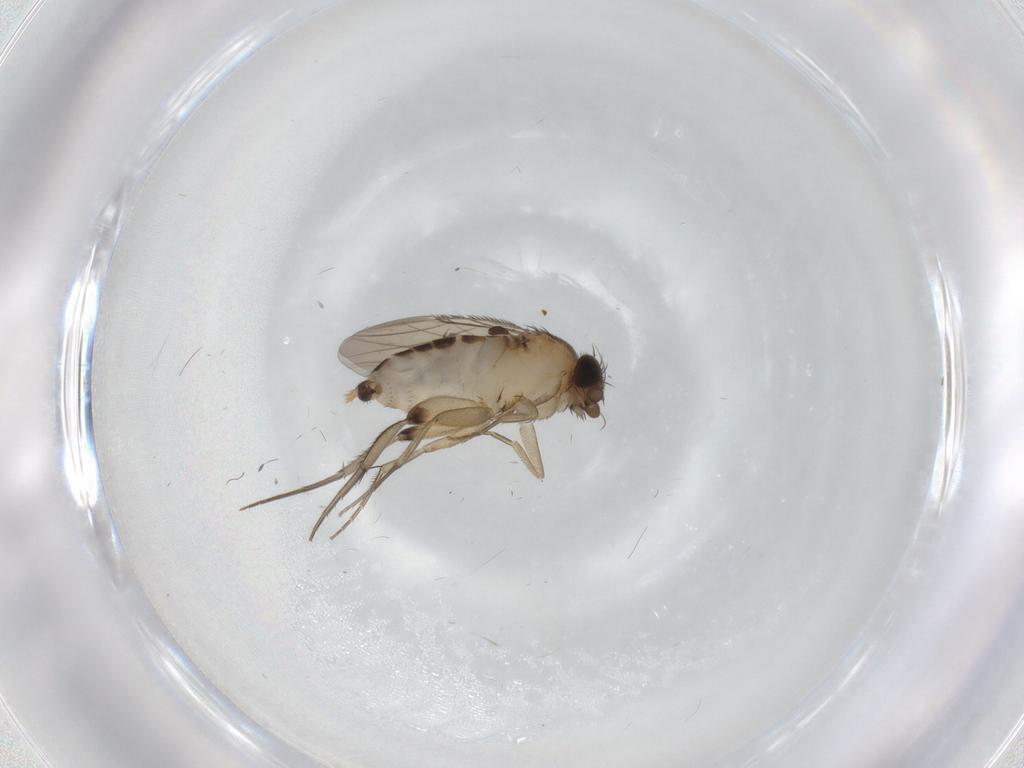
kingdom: Animalia
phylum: Arthropoda
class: Insecta
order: Diptera
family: Phoridae
